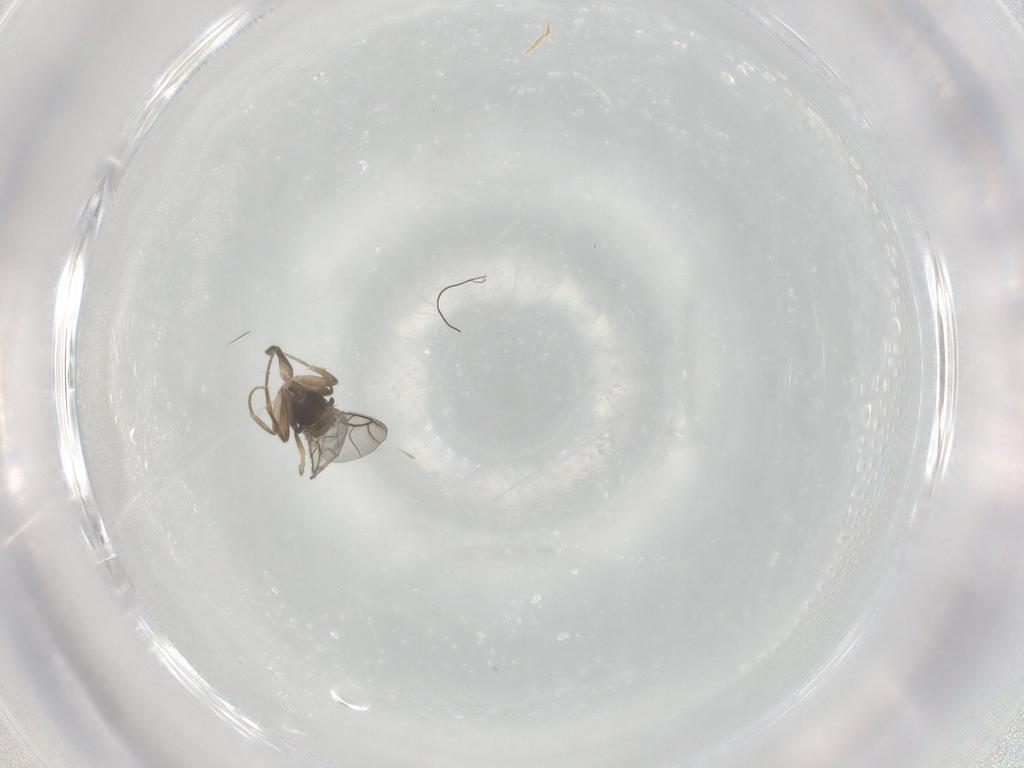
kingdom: Animalia
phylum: Arthropoda
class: Insecta
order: Diptera
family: Phoridae
